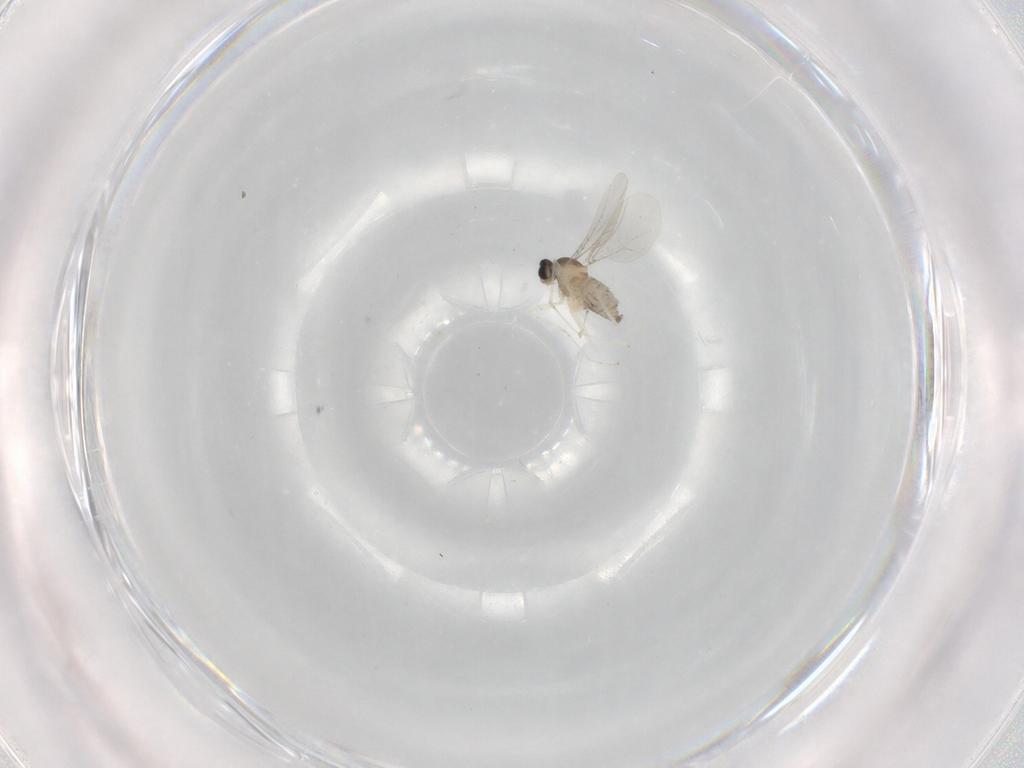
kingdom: Animalia
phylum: Arthropoda
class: Insecta
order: Diptera
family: Cecidomyiidae
